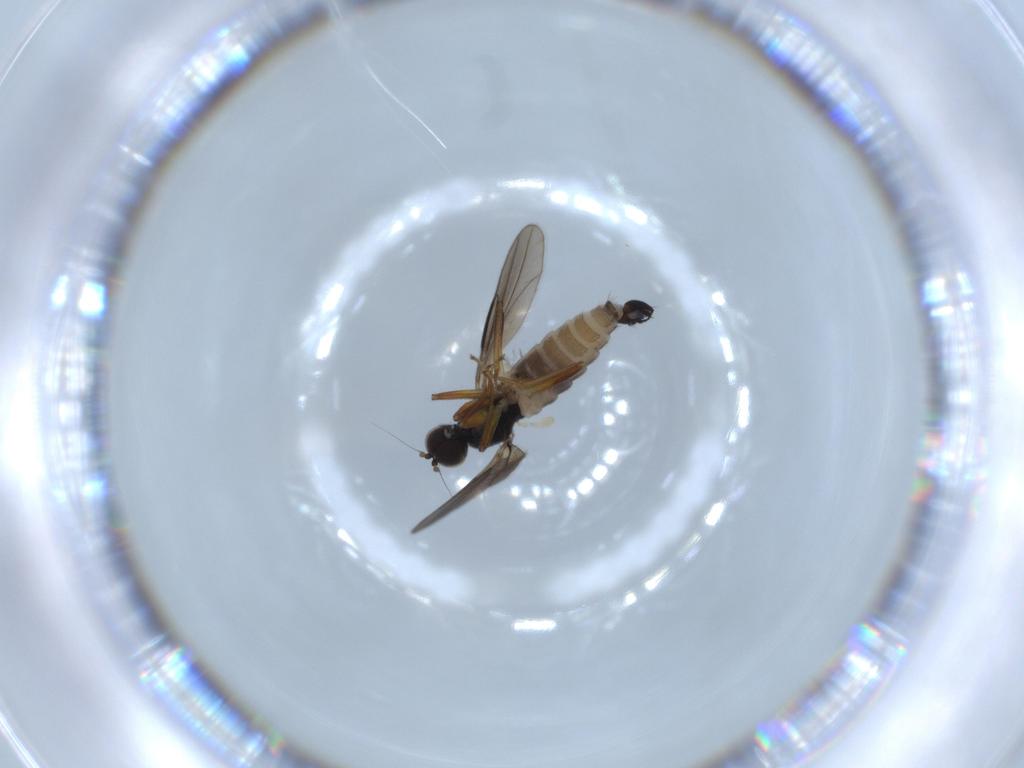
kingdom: Animalia
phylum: Arthropoda
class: Insecta
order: Diptera
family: Hybotidae
